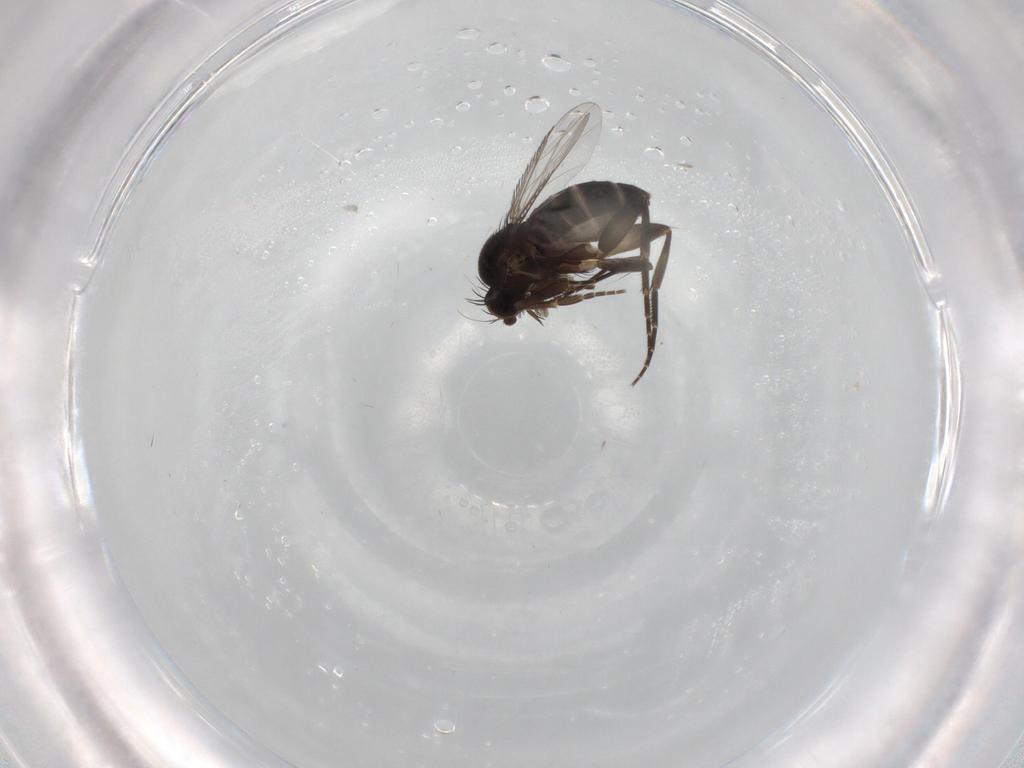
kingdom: Animalia
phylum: Arthropoda
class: Insecta
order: Diptera
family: Phoridae
